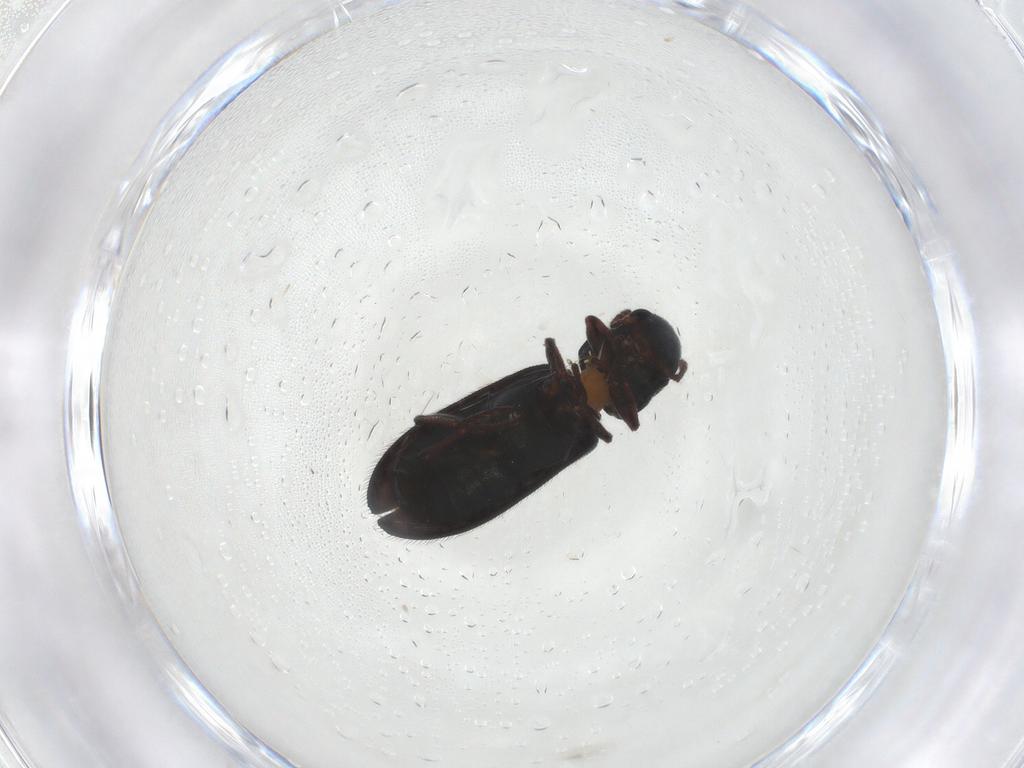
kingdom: Animalia
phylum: Arthropoda
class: Insecta
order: Coleoptera
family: Melyridae
